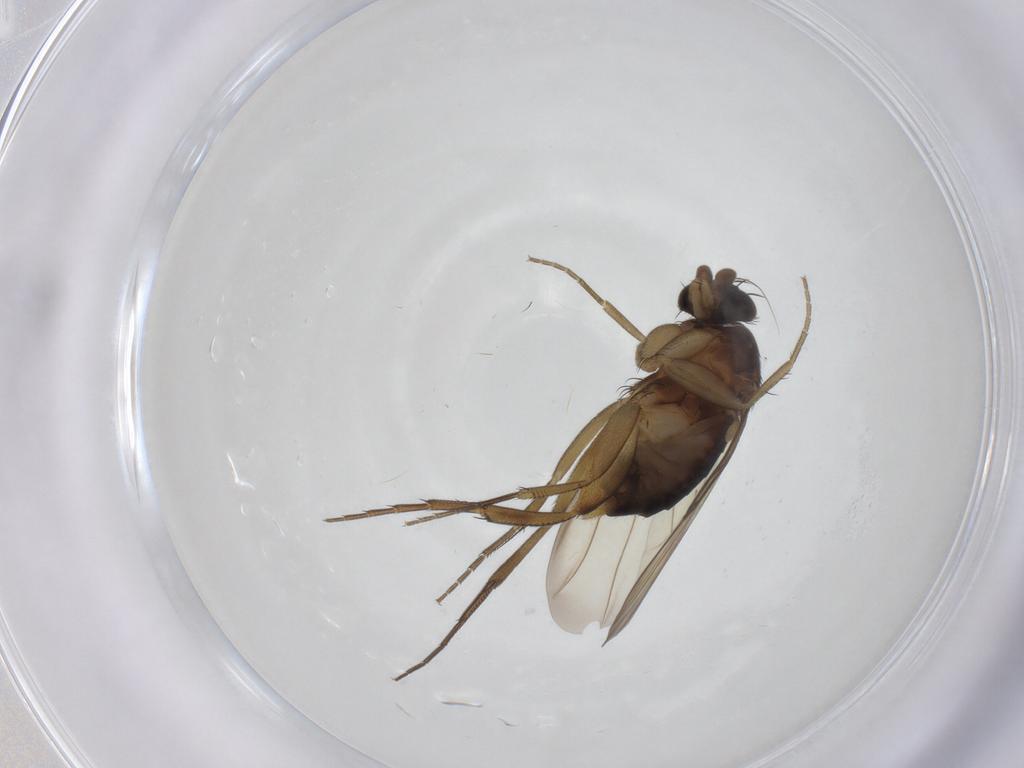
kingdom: Animalia
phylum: Arthropoda
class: Insecta
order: Diptera
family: Phoridae
